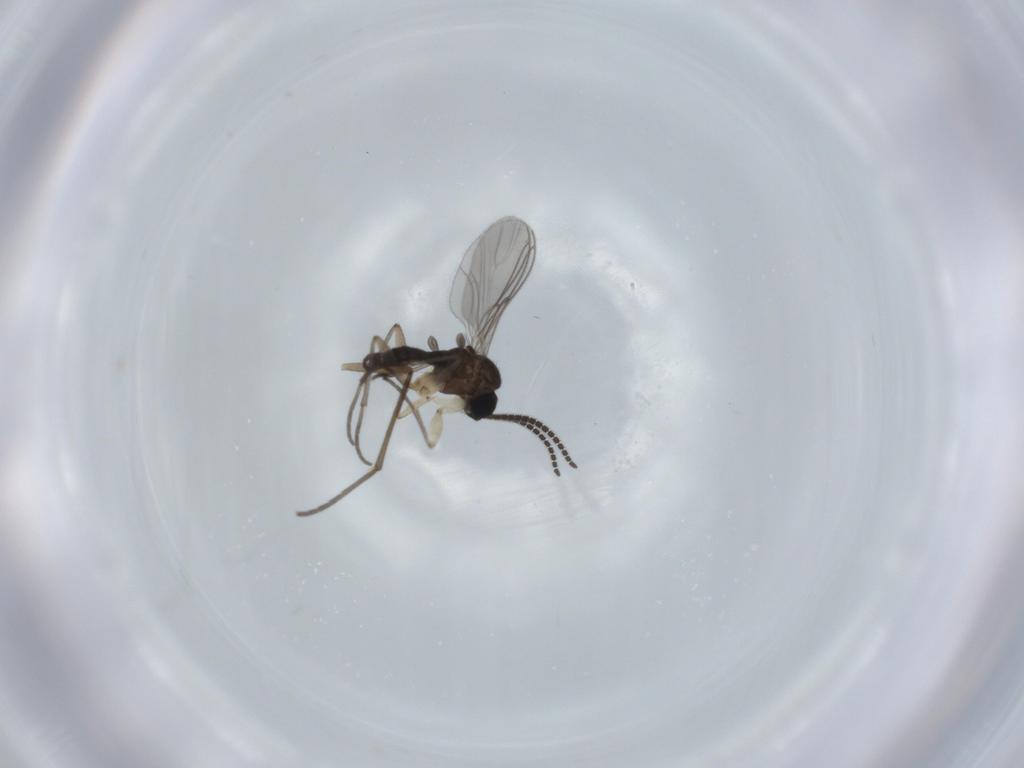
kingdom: Animalia
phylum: Arthropoda
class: Insecta
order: Diptera
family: Sciaridae
